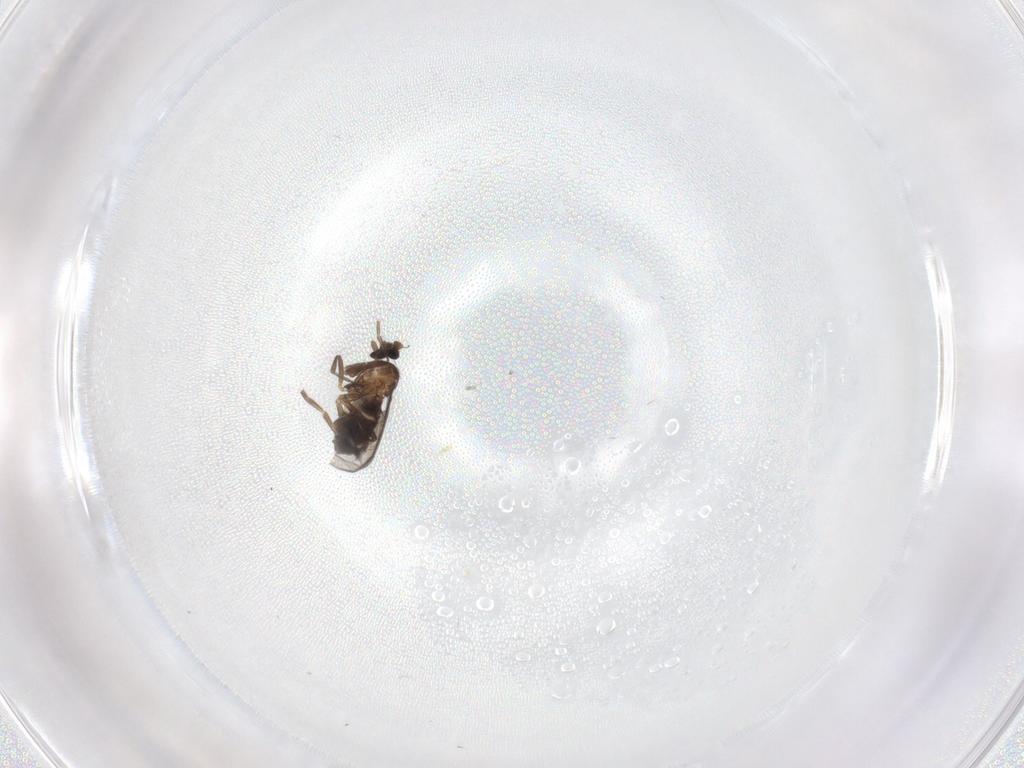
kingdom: Animalia
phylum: Arthropoda
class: Insecta
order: Diptera
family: Phoridae
